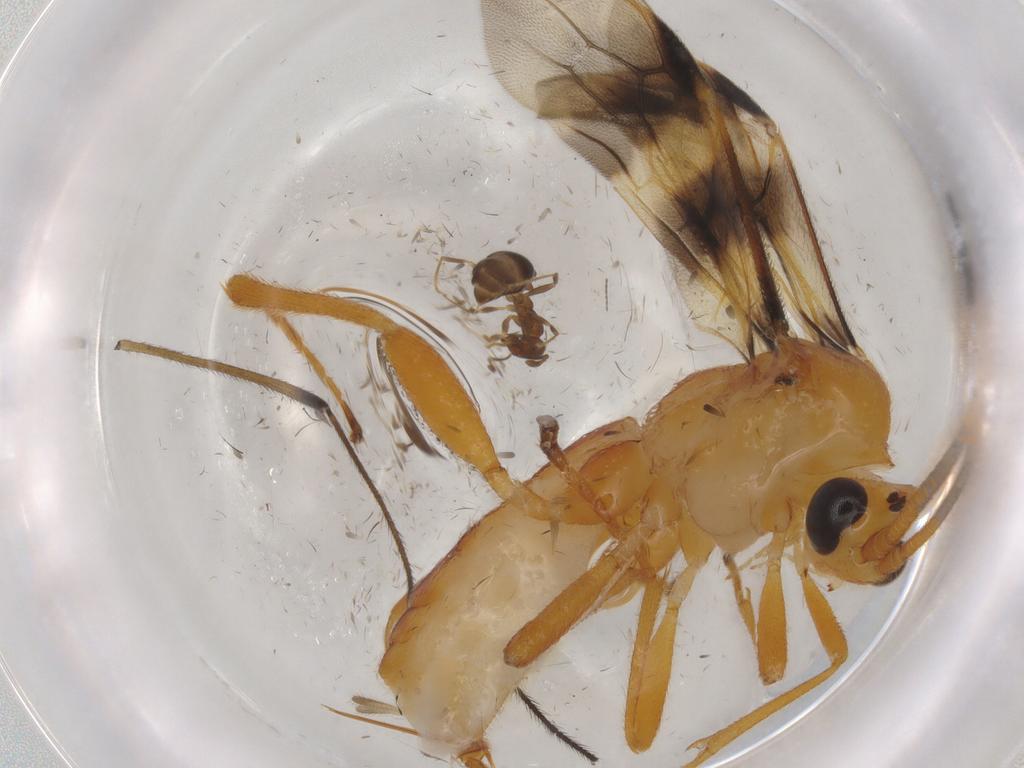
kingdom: Animalia
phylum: Arthropoda
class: Insecta
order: Diptera
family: Limoniidae
